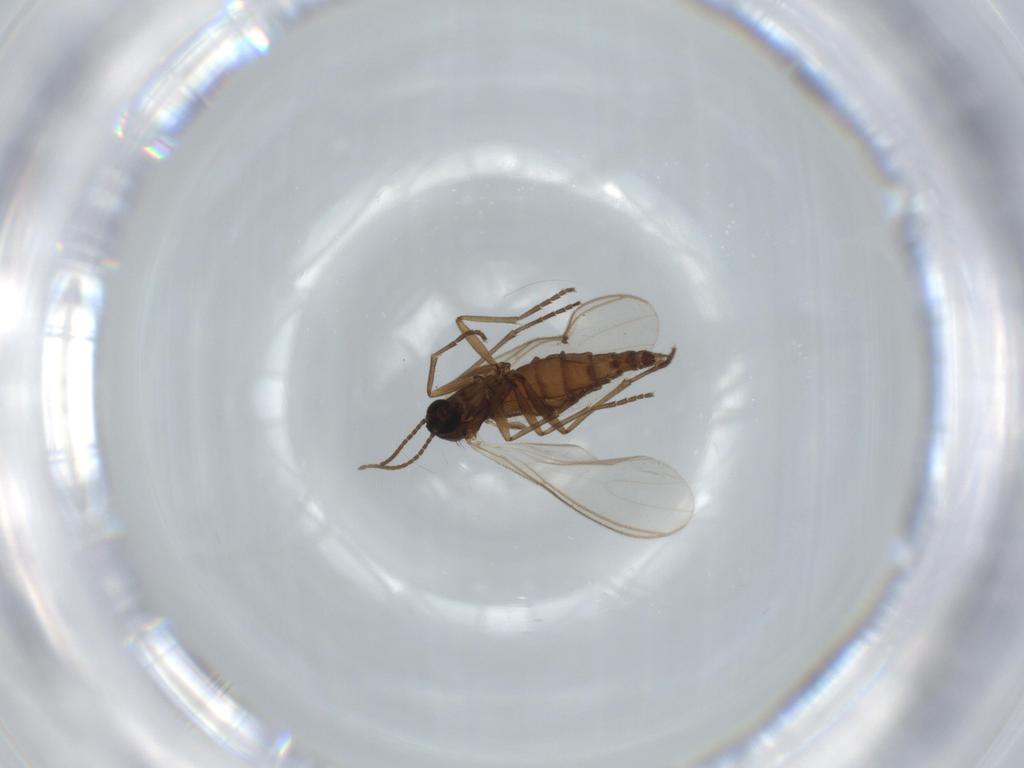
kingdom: Animalia
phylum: Arthropoda
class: Insecta
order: Diptera
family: Sciaridae
